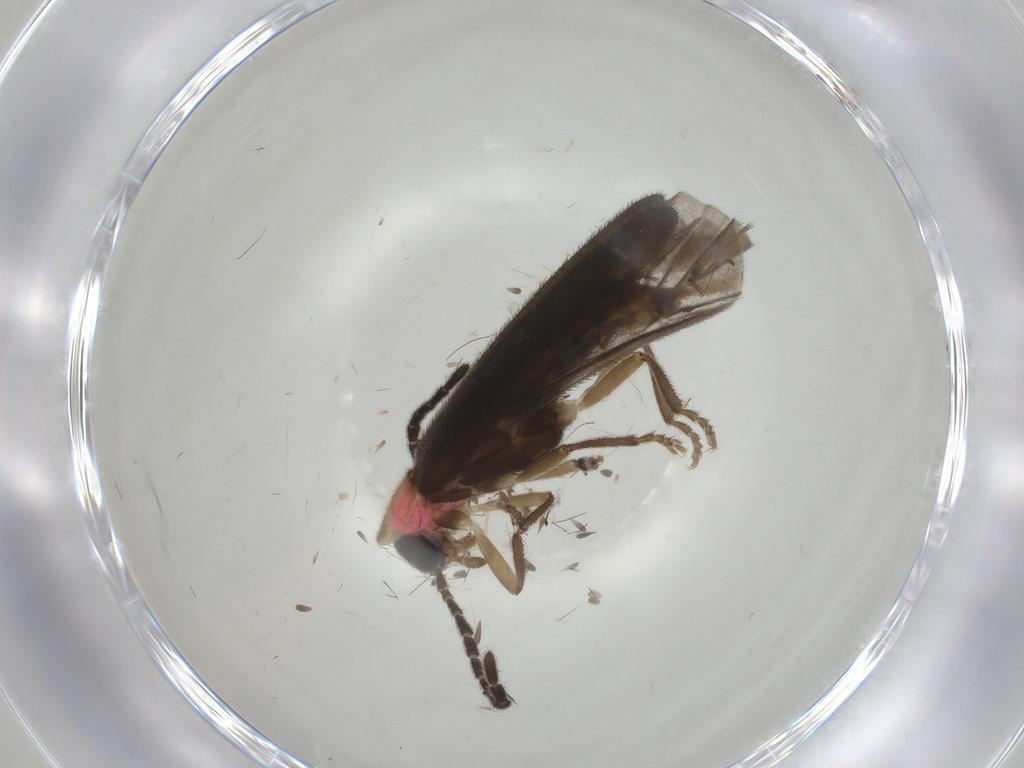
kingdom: Animalia
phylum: Arthropoda
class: Insecta
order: Coleoptera
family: Lampyridae
